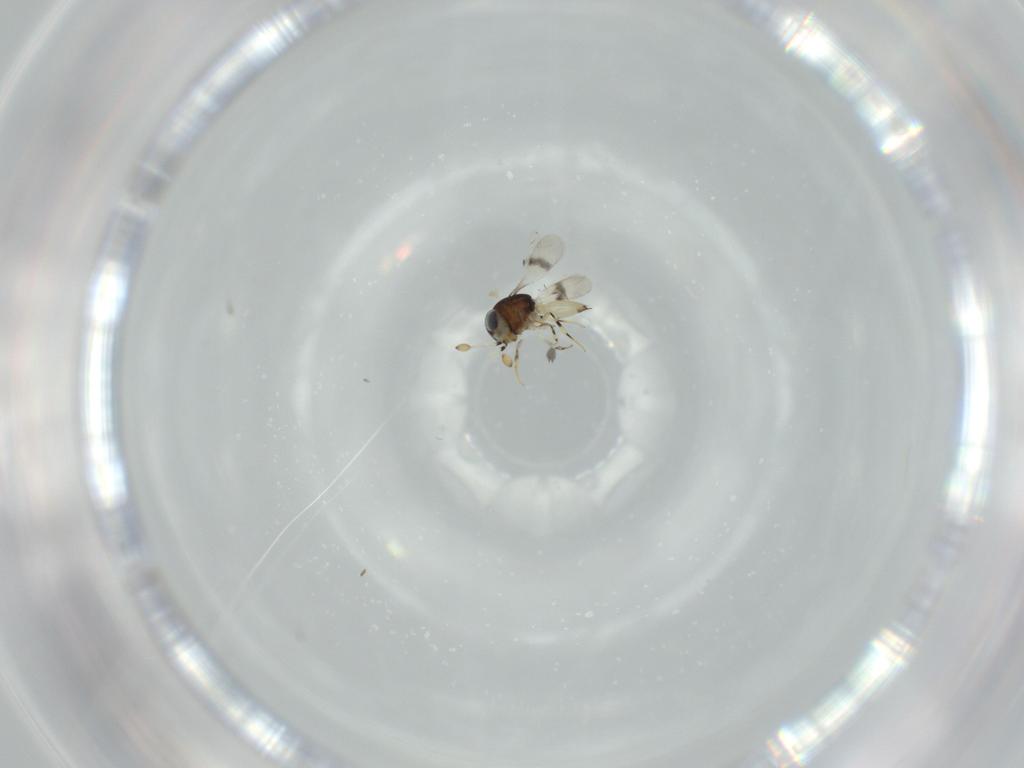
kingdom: Animalia
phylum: Arthropoda
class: Insecta
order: Hymenoptera
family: Scelionidae
